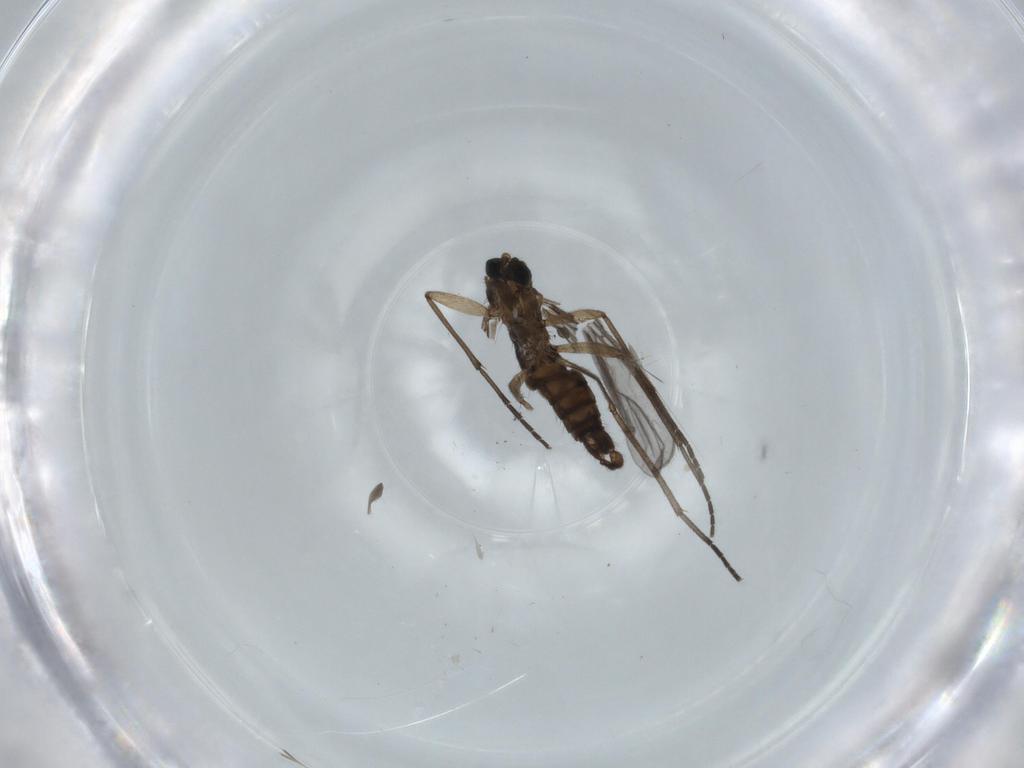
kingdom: Animalia
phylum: Arthropoda
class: Insecta
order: Diptera
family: Sciaridae
